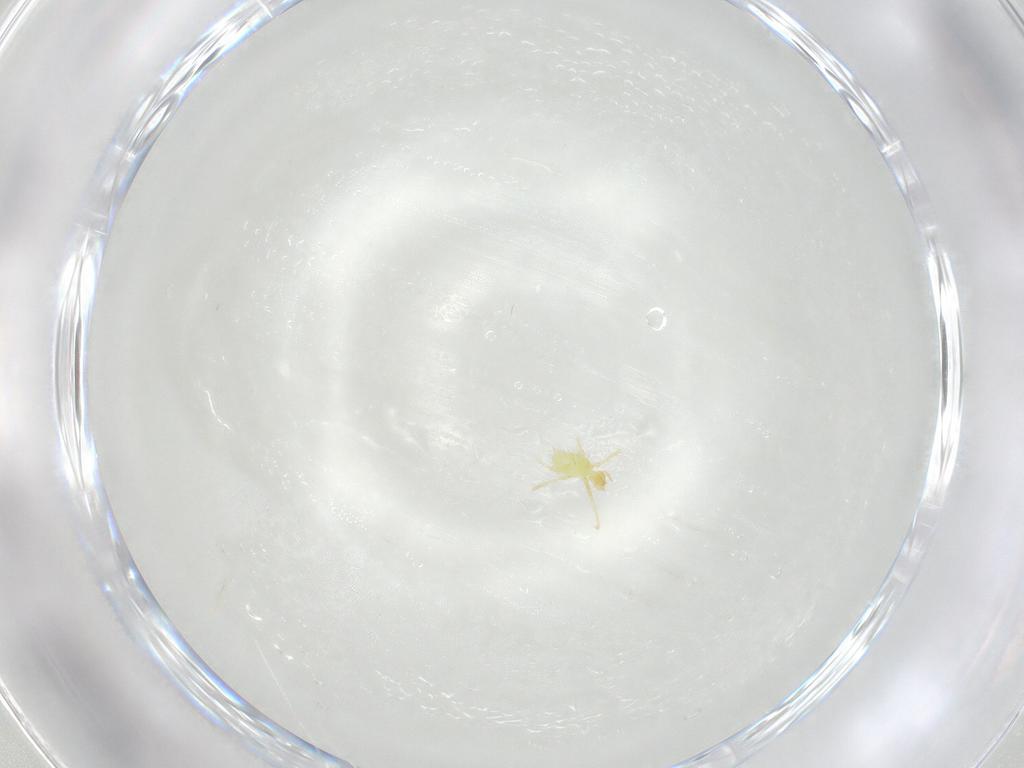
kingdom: Animalia
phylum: Arthropoda
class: Arachnida
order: Trombidiformes
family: Erythraeidae
